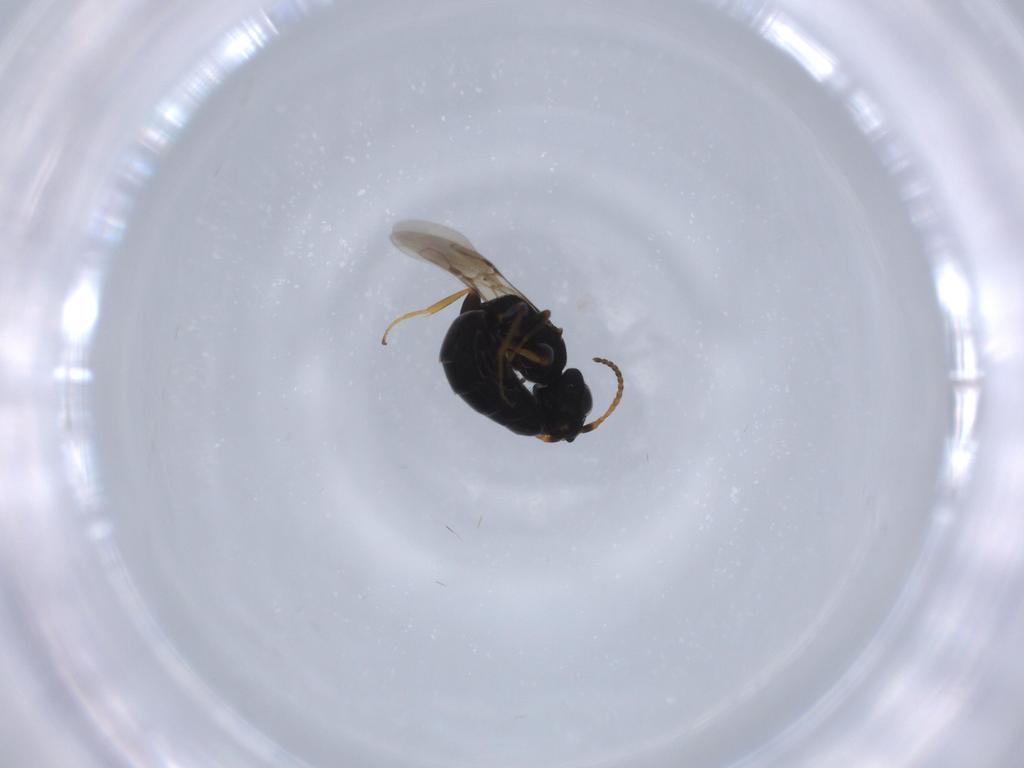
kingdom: Animalia
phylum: Arthropoda
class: Insecta
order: Hymenoptera
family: Bethylidae
